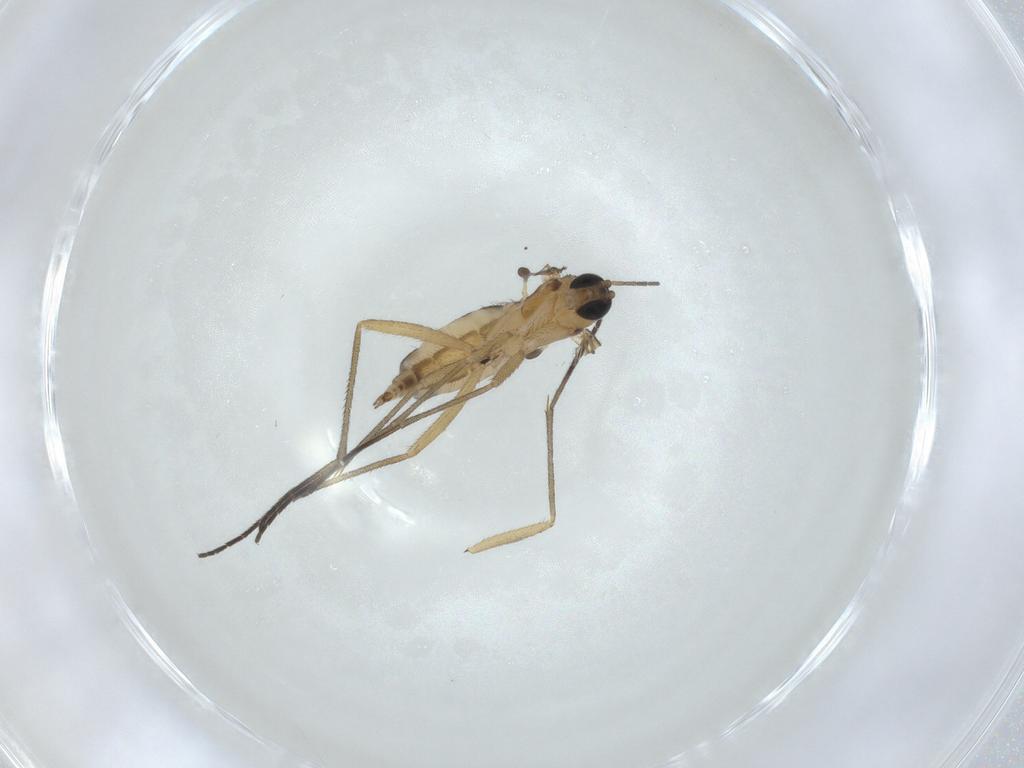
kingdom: Animalia
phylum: Arthropoda
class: Insecta
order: Diptera
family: Sciaridae
